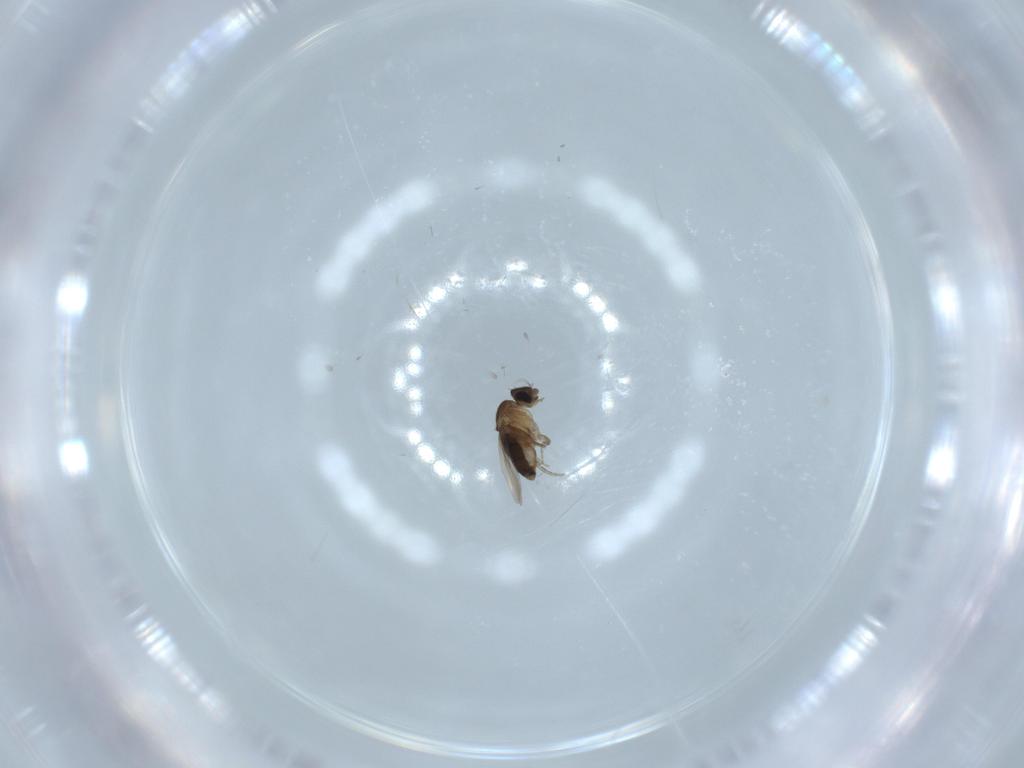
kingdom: Animalia
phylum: Arthropoda
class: Insecta
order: Diptera
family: Phoridae
